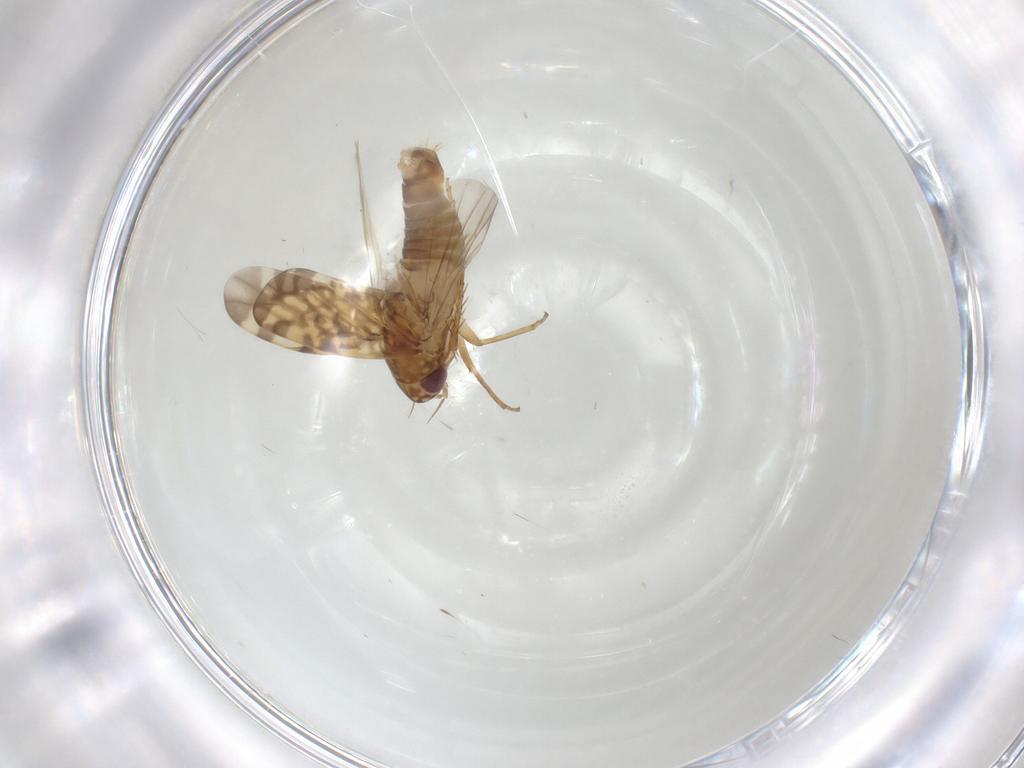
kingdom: Animalia
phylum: Arthropoda
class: Insecta
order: Hemiptera
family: Cicadellidae
